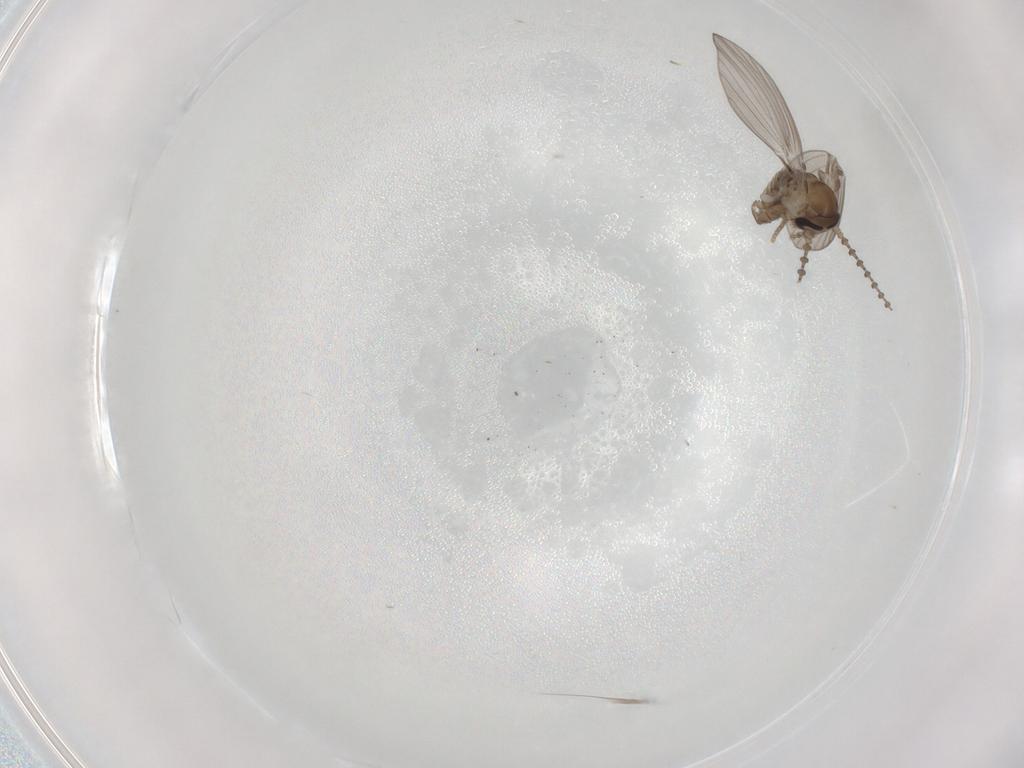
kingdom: Animalia
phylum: Arthropoda
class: Insecta
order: Diptera
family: Psychodidae
